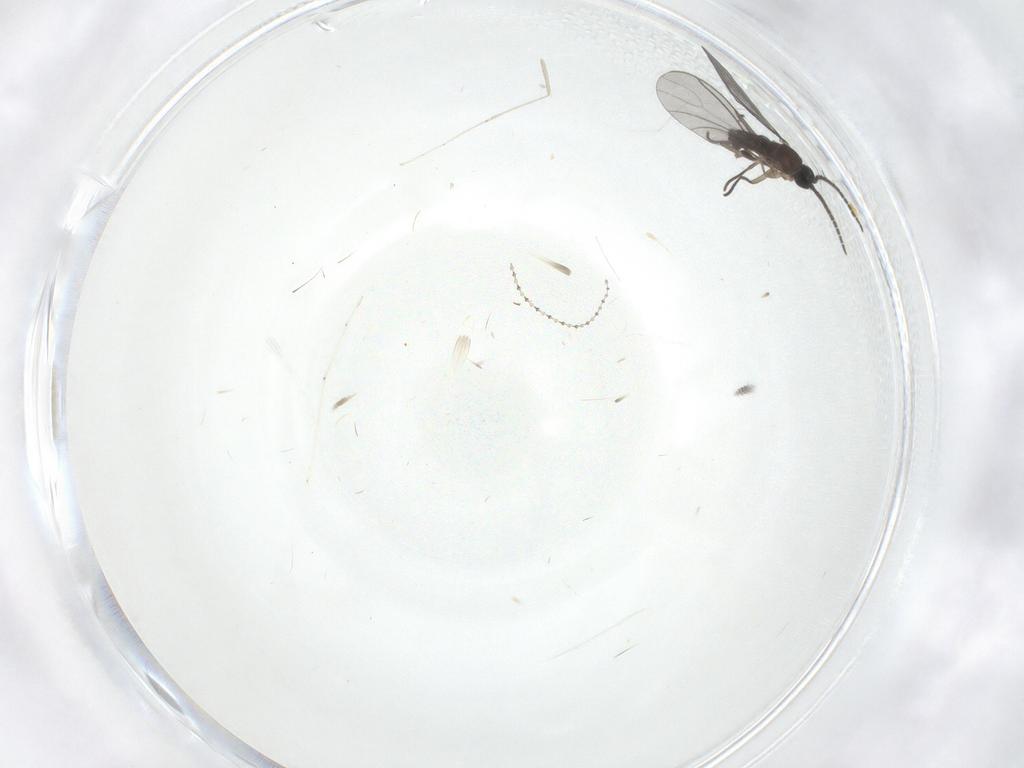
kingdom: Animalia
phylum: Arthropoda
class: Insecta
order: Diptera
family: Sciaridae
